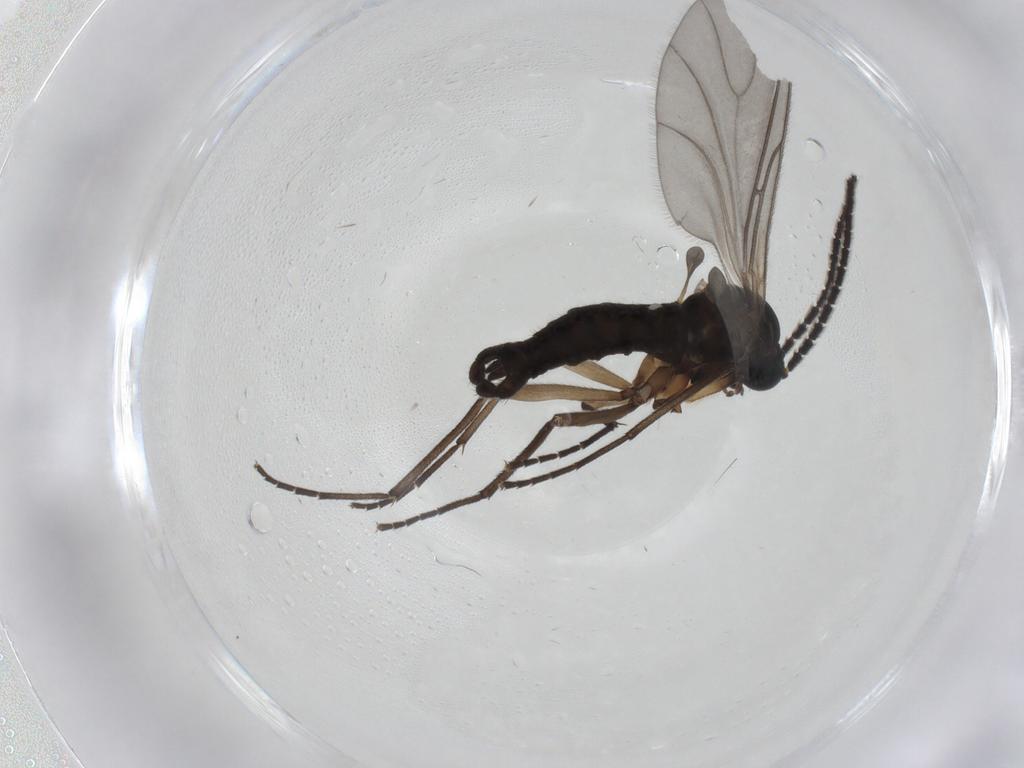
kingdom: Animalia
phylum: Arthropoda
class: Insecta
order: Diptera
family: Sciaridae
